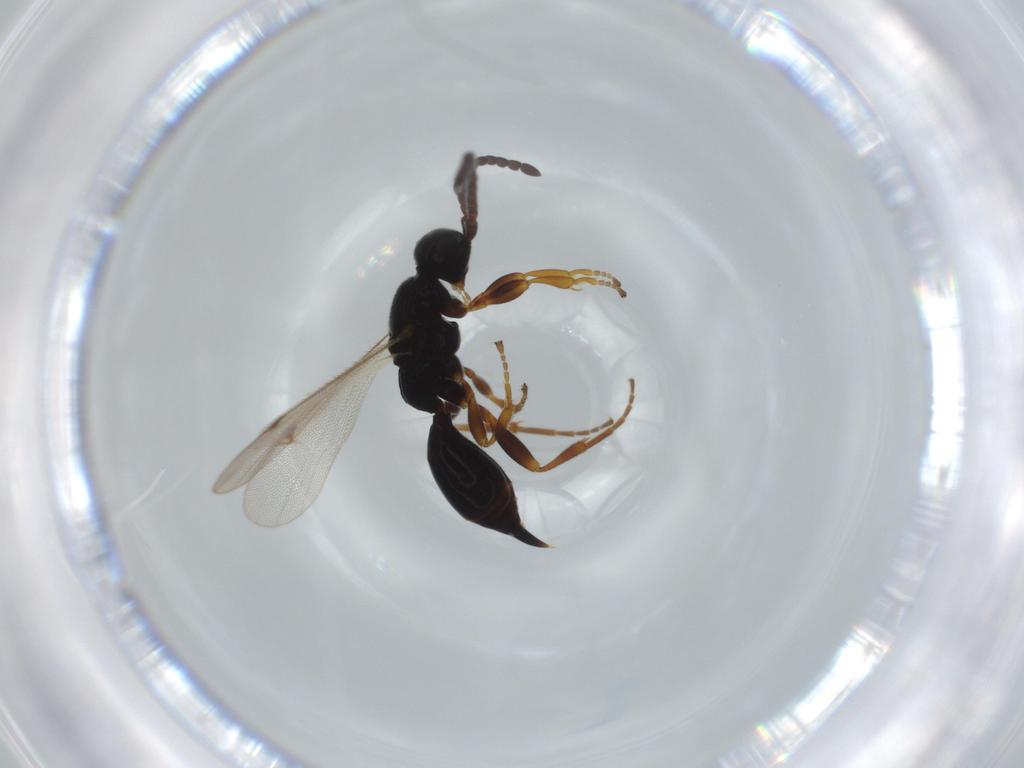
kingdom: Animalia
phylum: Arthropoda
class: Insecta
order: Hymenoptera
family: Proctotrupidae
